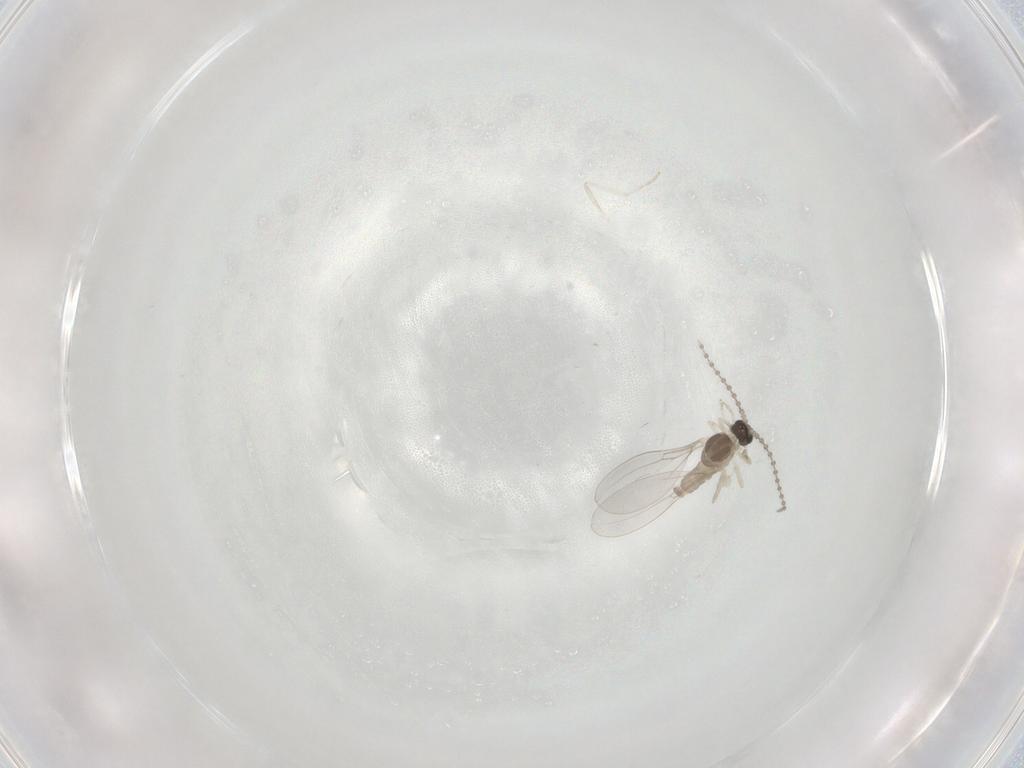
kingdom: Animalia
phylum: Arthropoda
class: Insecta
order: Diptera
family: Cecidomyiidae
